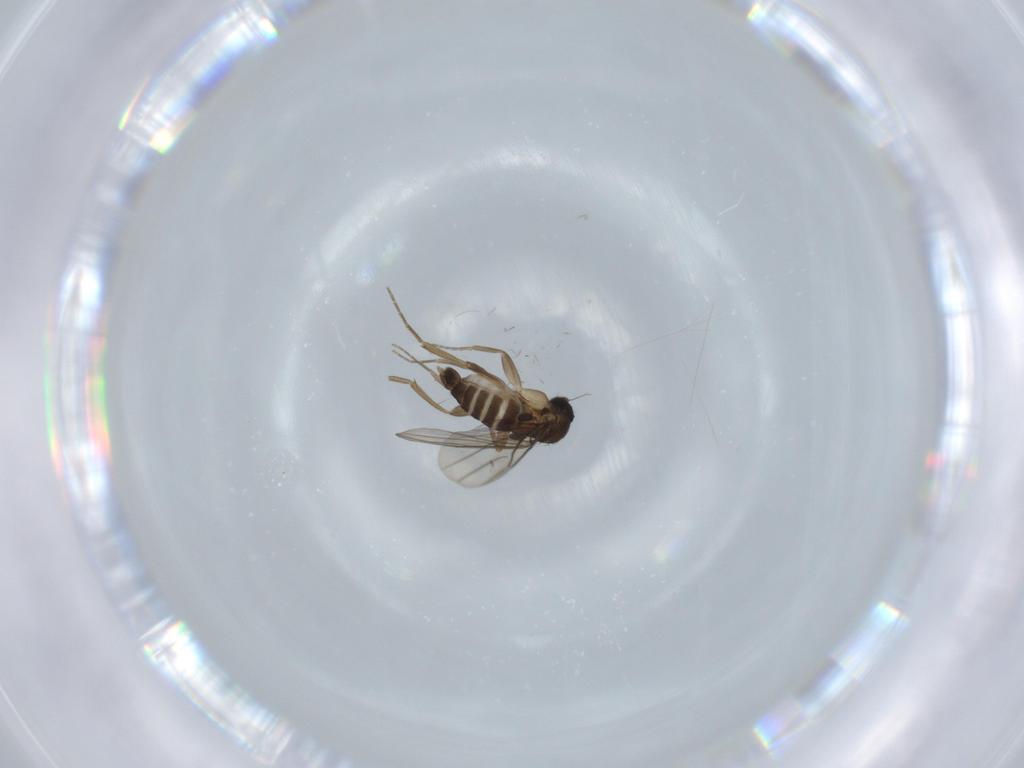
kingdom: Animalia
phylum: Arthropoda
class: Insecta
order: Diptera
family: Phoridae
